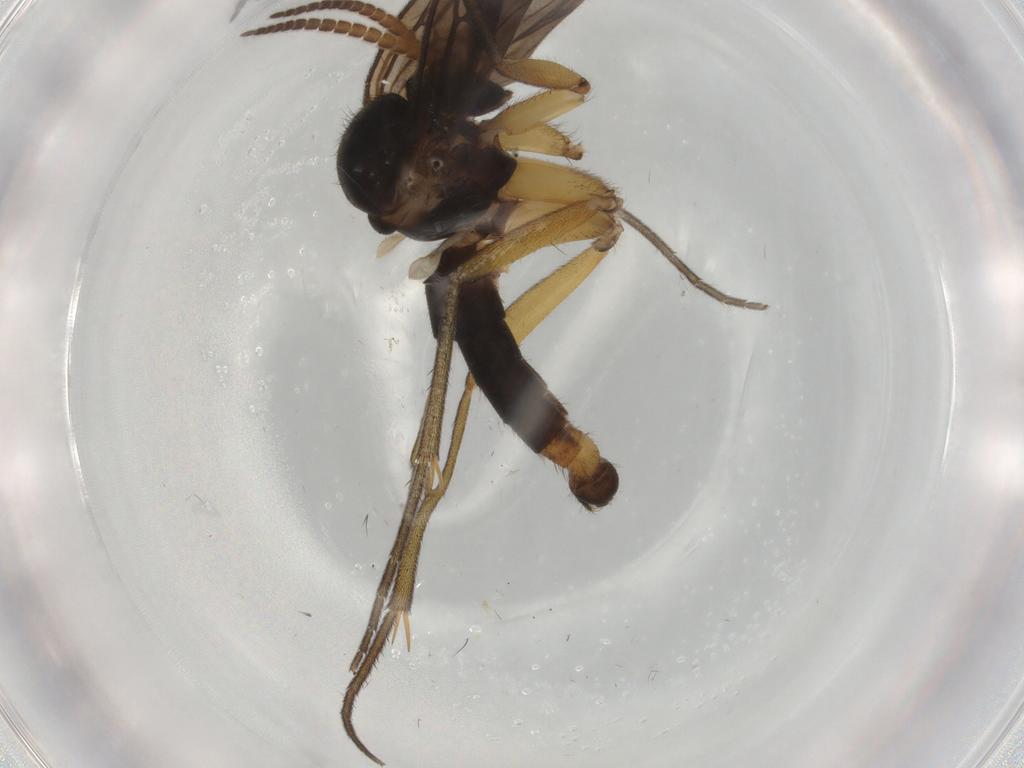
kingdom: Animalia
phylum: Arthropoda
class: Insecta
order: Diptera
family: Cecidomyiidae
